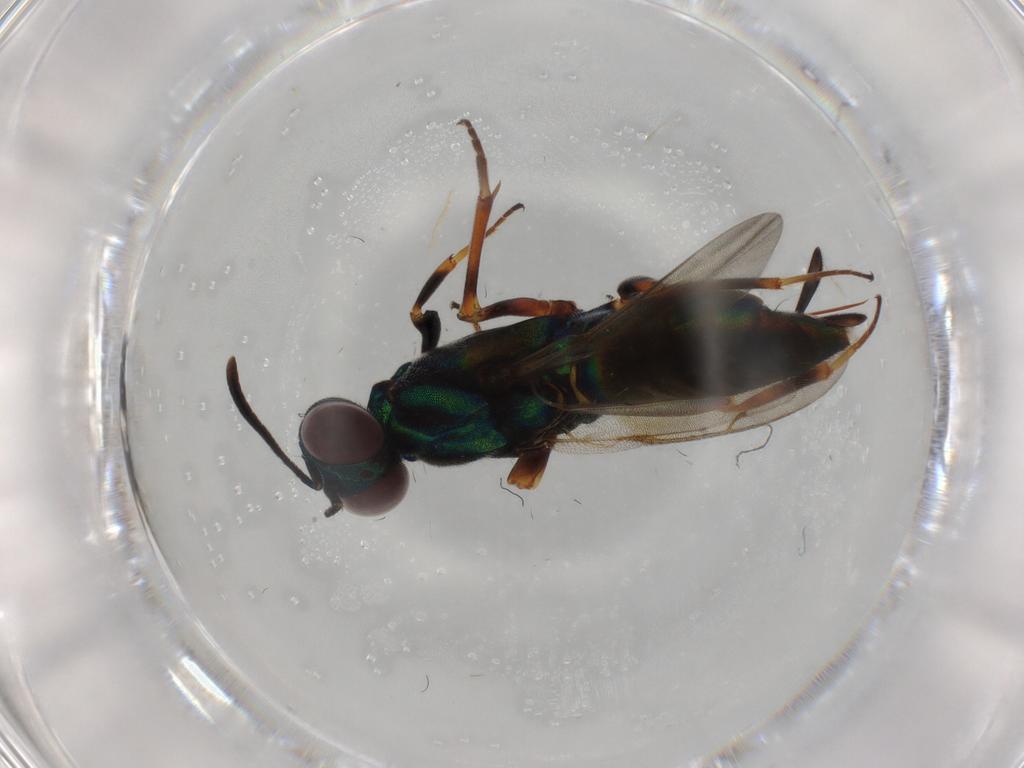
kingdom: Animalia
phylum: Arthropoda
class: Insecta
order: Hymenoptera
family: Eupelmidae
